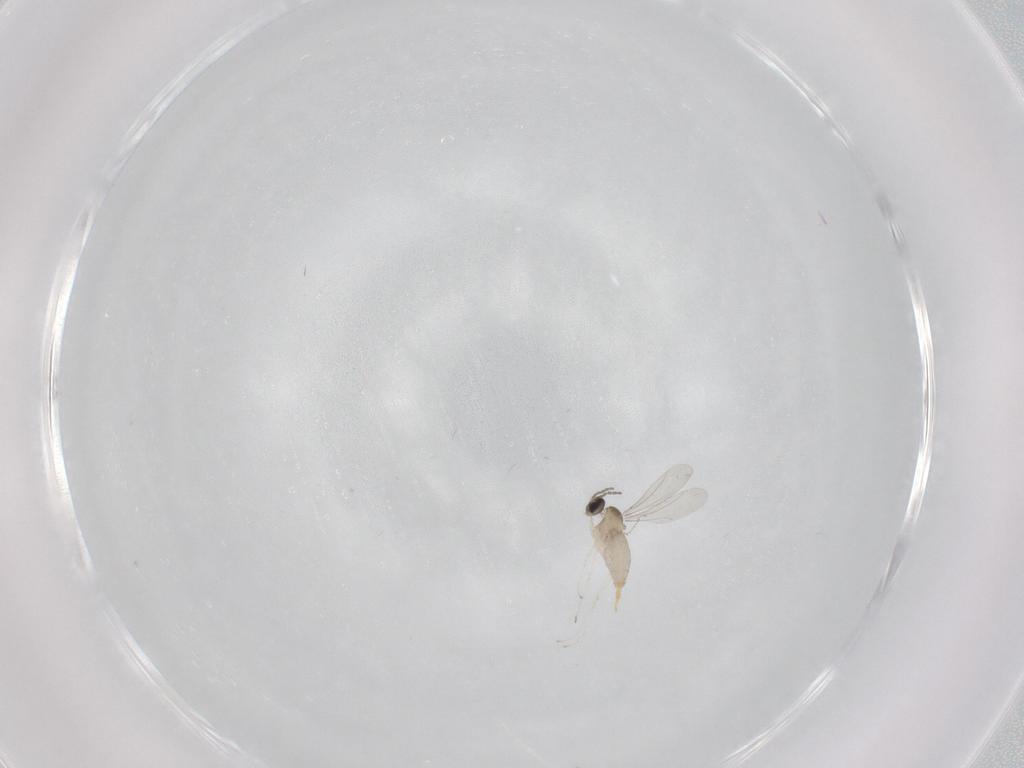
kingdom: Animalia
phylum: Arthropoda
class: Insecta
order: Diptera
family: Cecidomyiidae
